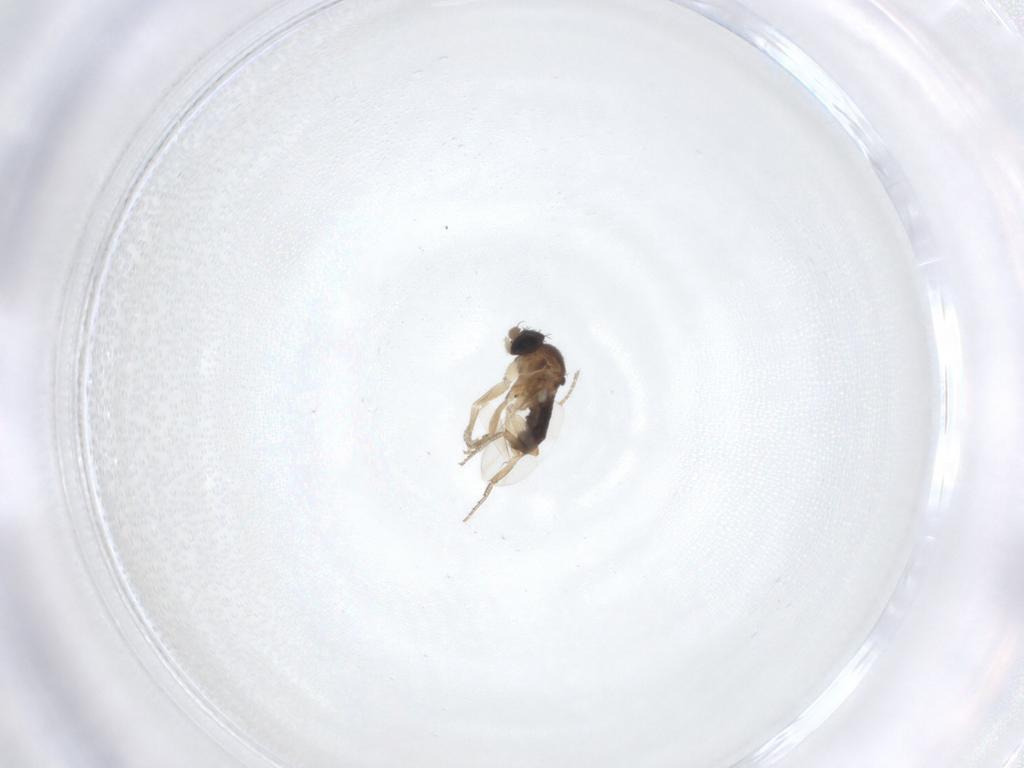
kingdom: Animalia
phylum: Arthropoda
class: Insecta
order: Diptera
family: Phoridae
